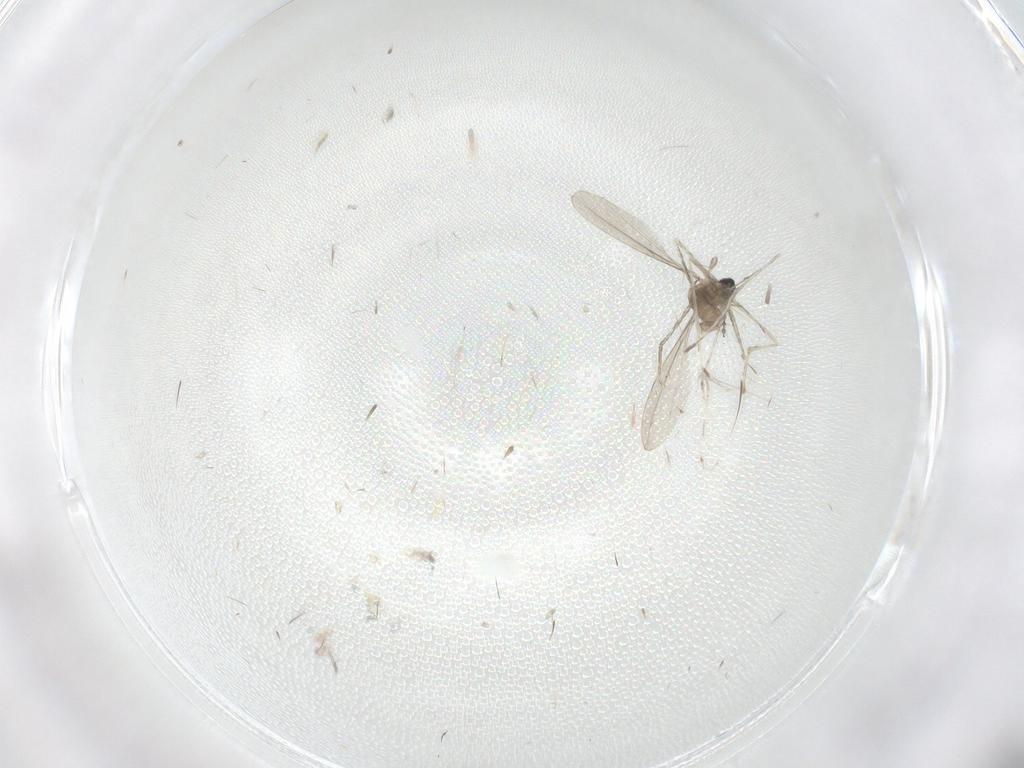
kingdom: Animalia
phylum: Arthropoda
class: Insecta
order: Diptera
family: Cecidomyiidae
